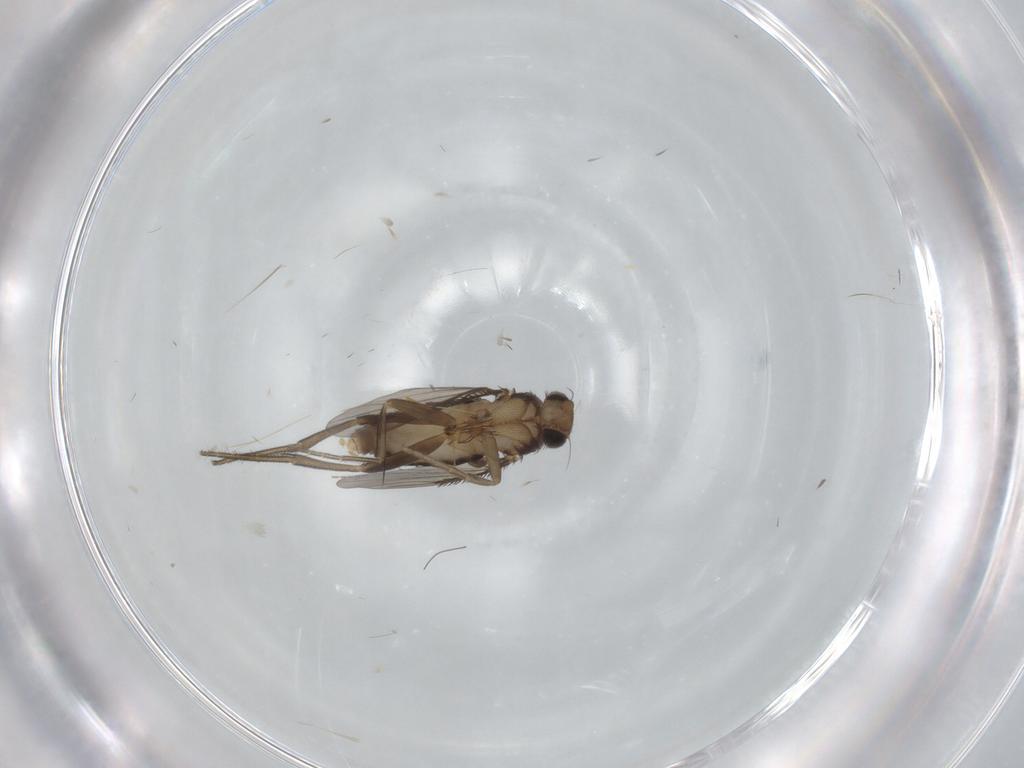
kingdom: Animalia
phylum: Arthropoda
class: Insecta
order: Diptera
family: Phoridae
